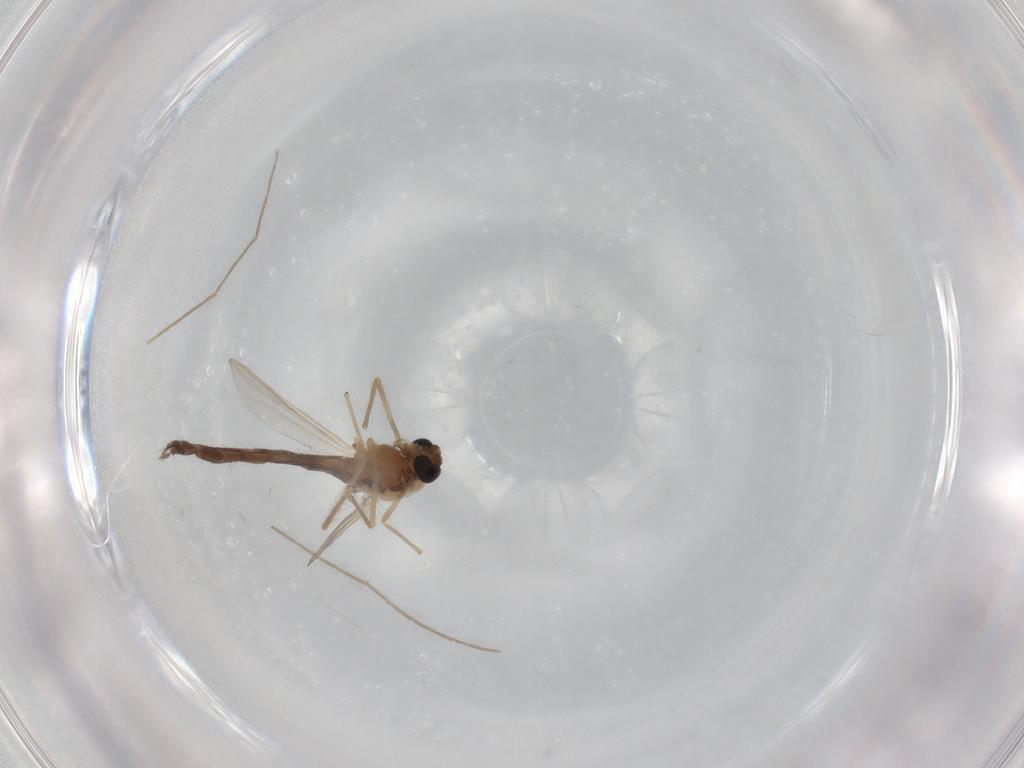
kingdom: Animalia
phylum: Arthropoda
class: Insecta
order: Diptera
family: Chironomidae
